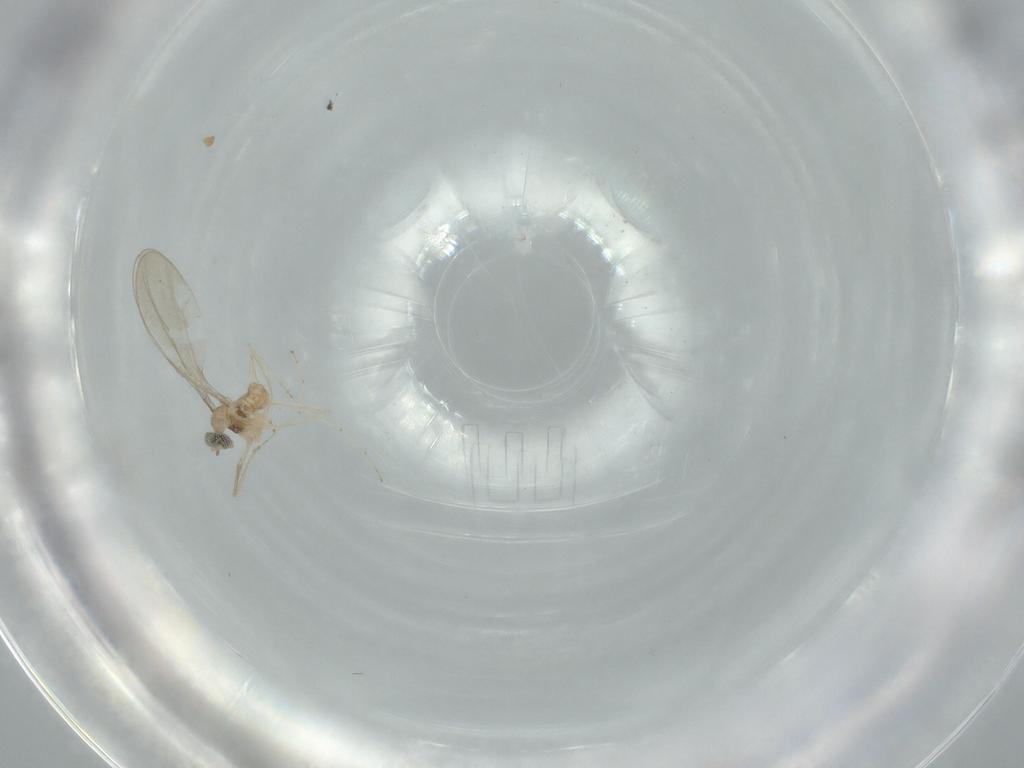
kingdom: Animalia
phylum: Arthropoda
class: Insecta
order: Diptera
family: Cecidomyiidae
